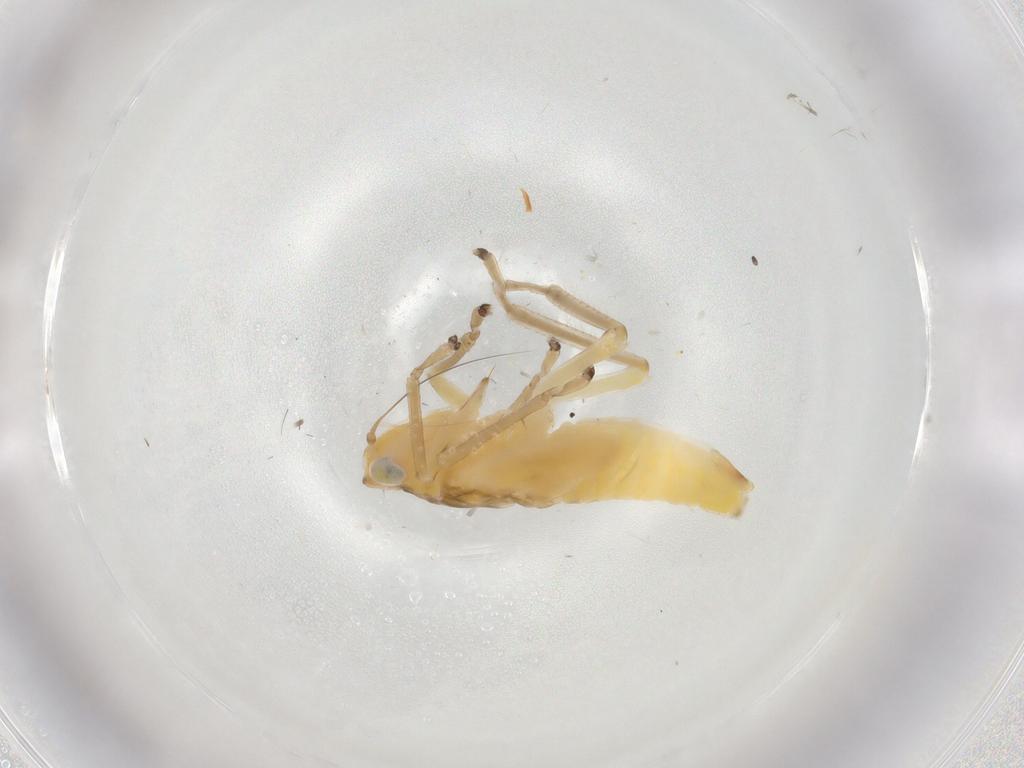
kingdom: Animalia
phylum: Arthropoda
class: Insecta
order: Hemiptera
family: Cicadellidae
